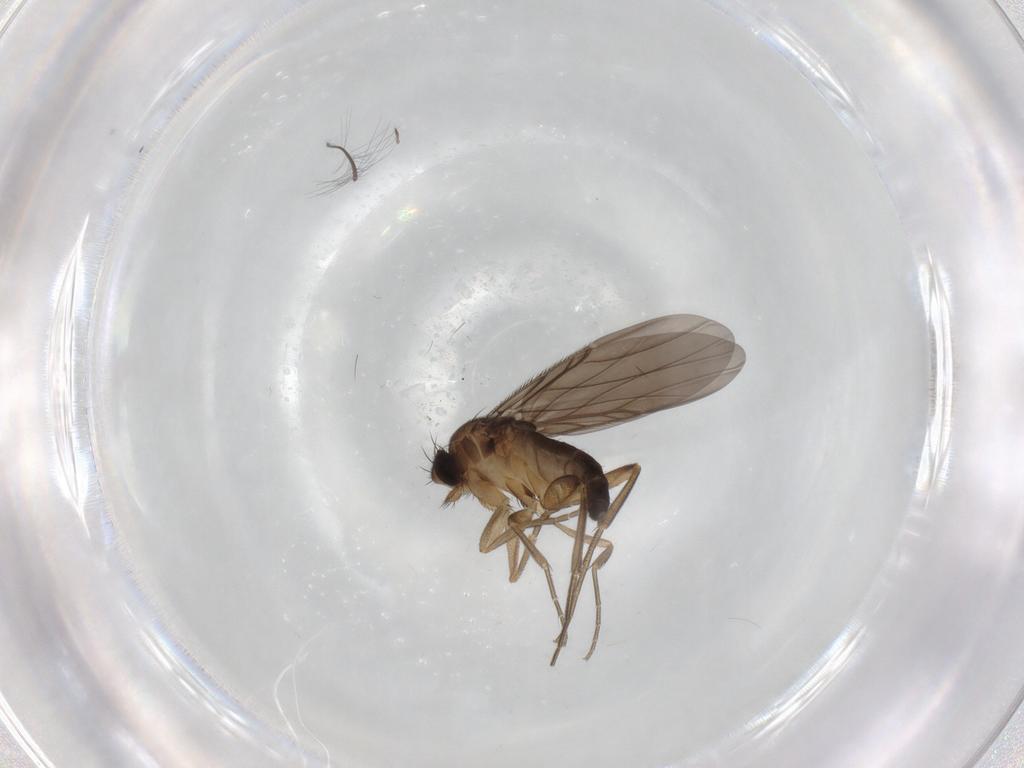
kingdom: Animalia
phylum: Arthropoda
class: Insecta
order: Diptera
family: Phoridae
